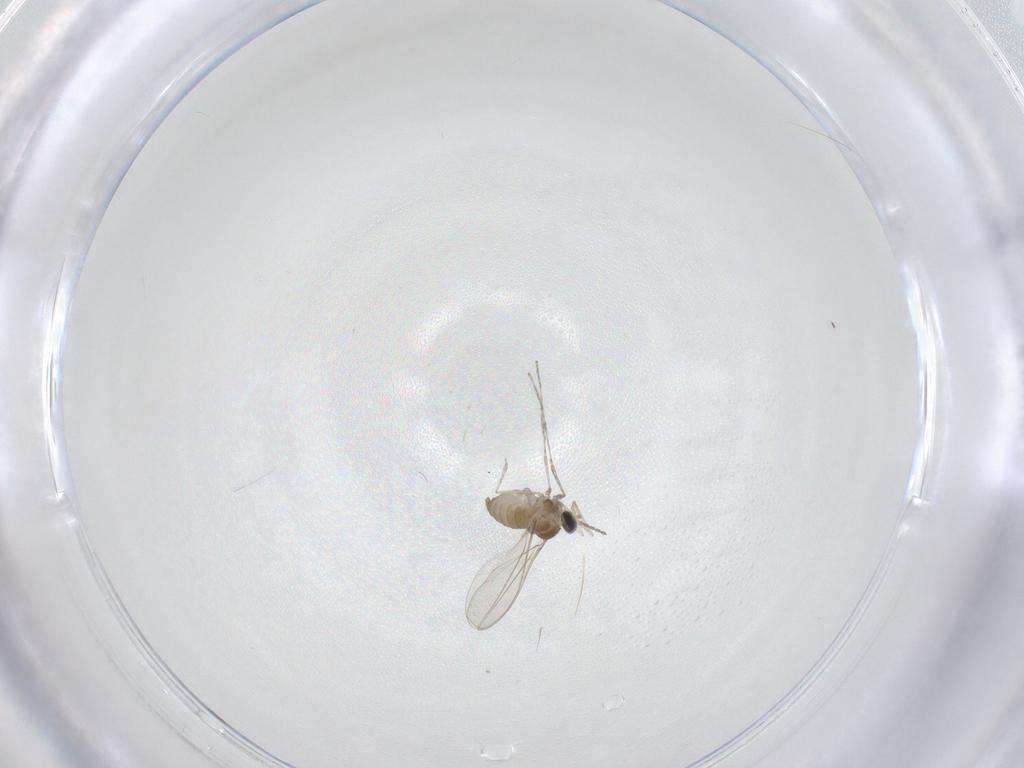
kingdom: Animalia
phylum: Arthropoda
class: Insecta
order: Diptera
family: Cecidomyiidae
